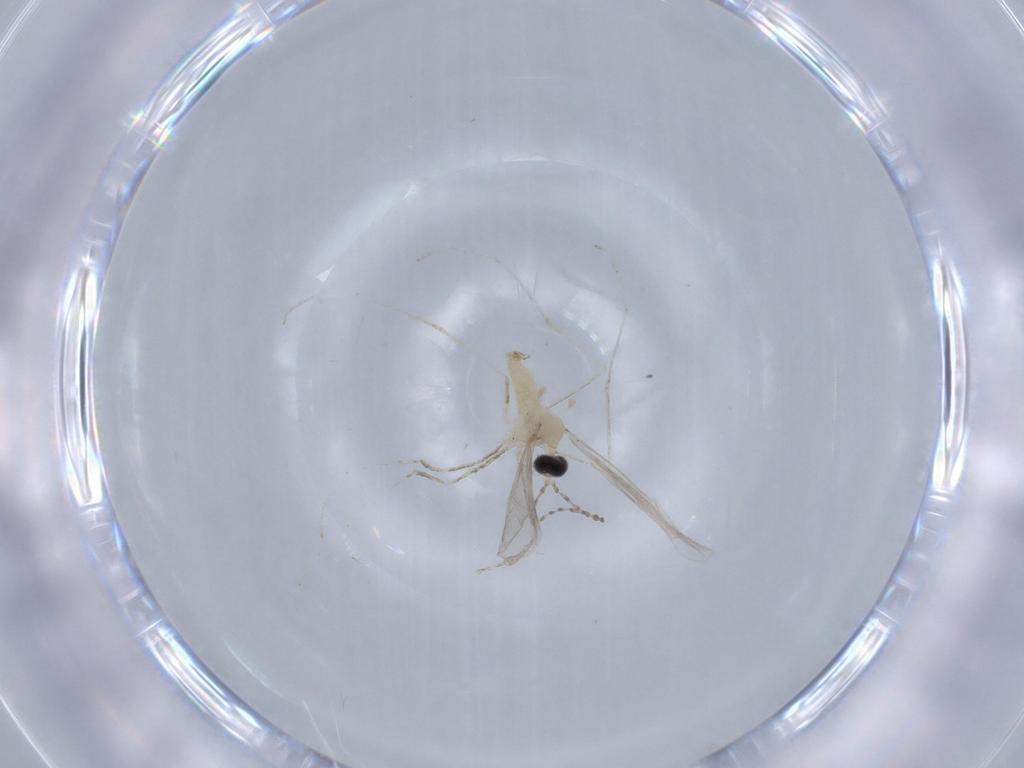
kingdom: Animalia
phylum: Arthropoda
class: Insecta
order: Diptera
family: Cecidomyiidae
